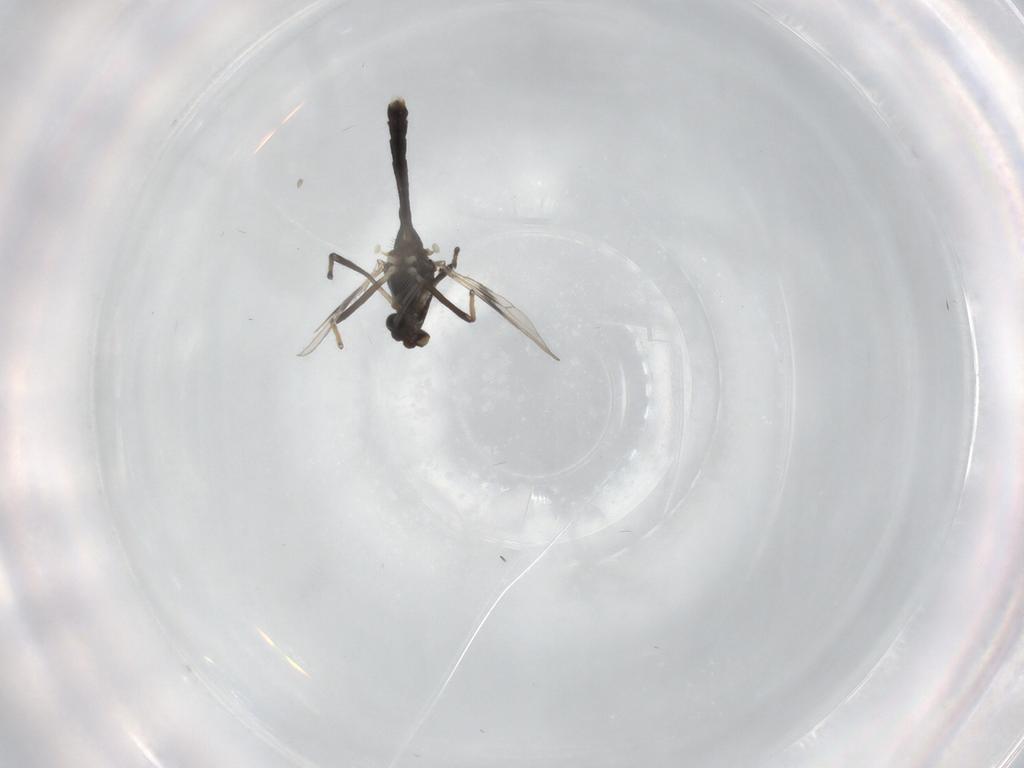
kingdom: Animalia
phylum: Arthropoda
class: Insecta
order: Diptera
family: Chironomidae
